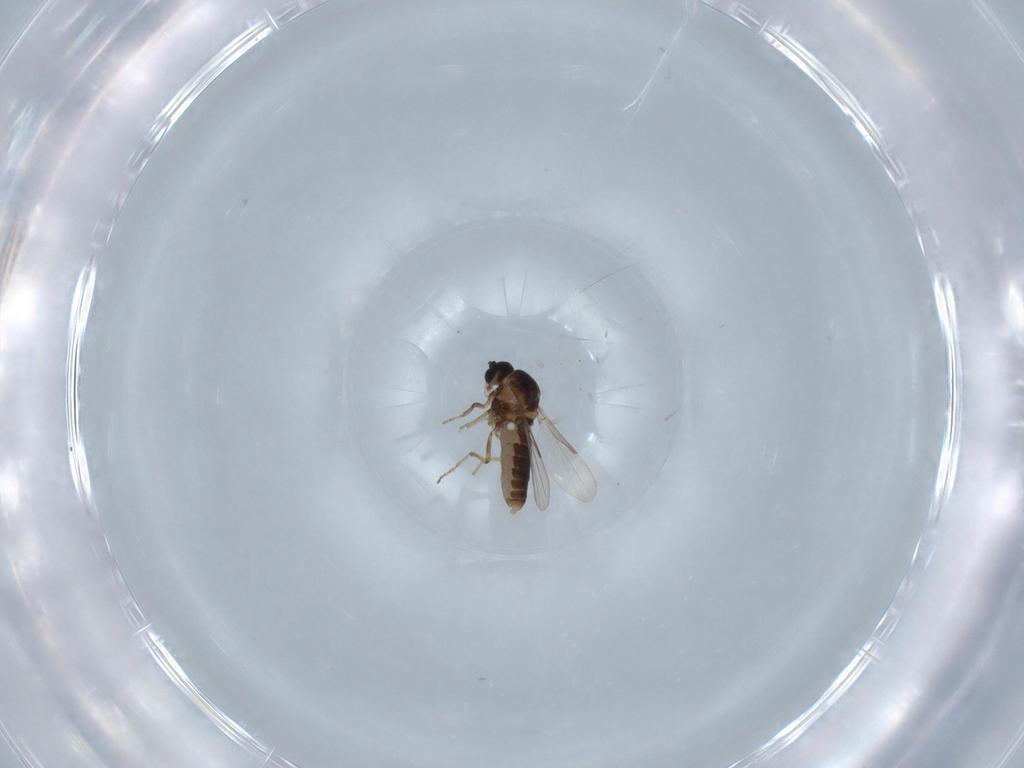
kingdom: Animalia
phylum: Arthropoda
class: Insecta
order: Diptera
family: Ceratopogonidae
